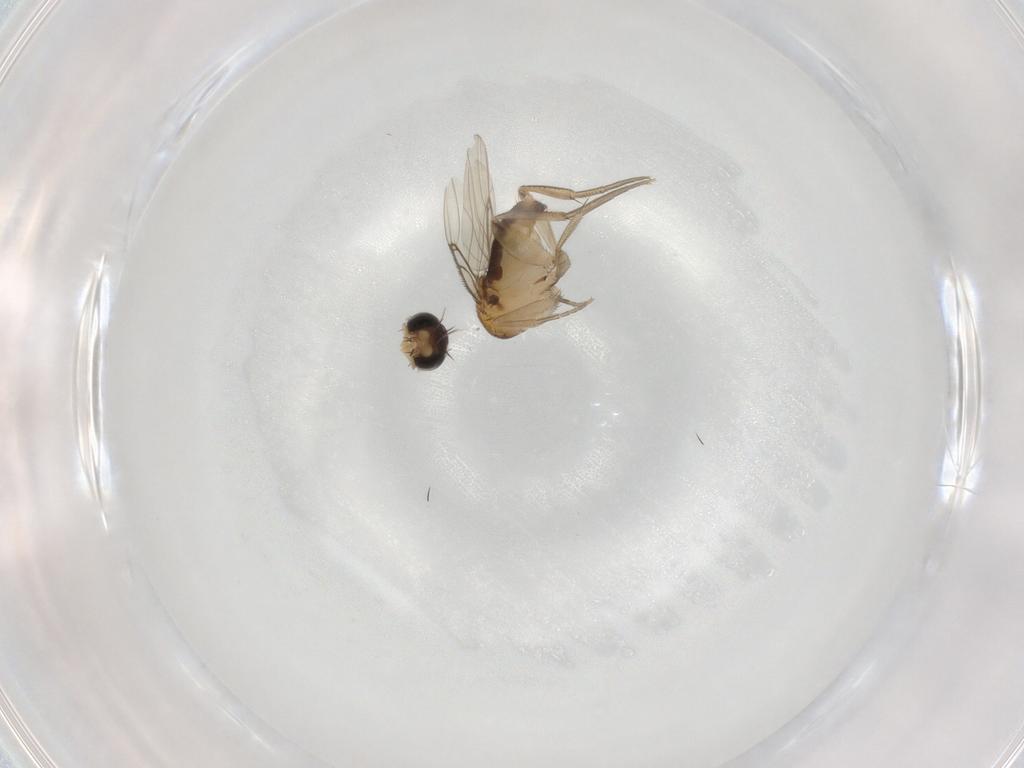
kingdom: Animalia
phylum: Arthropoda
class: Insecta
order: Diptera
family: Phoridae
